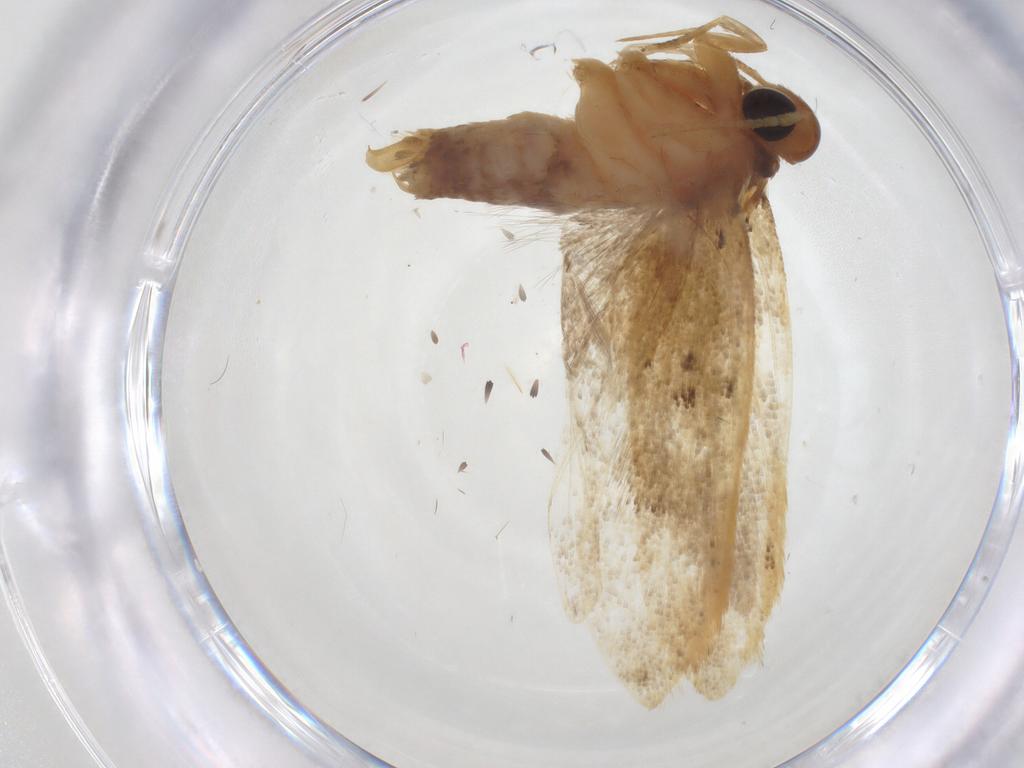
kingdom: Animalia
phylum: Arthropoda
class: Insecta
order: Lepidoptera
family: Autostichidae
